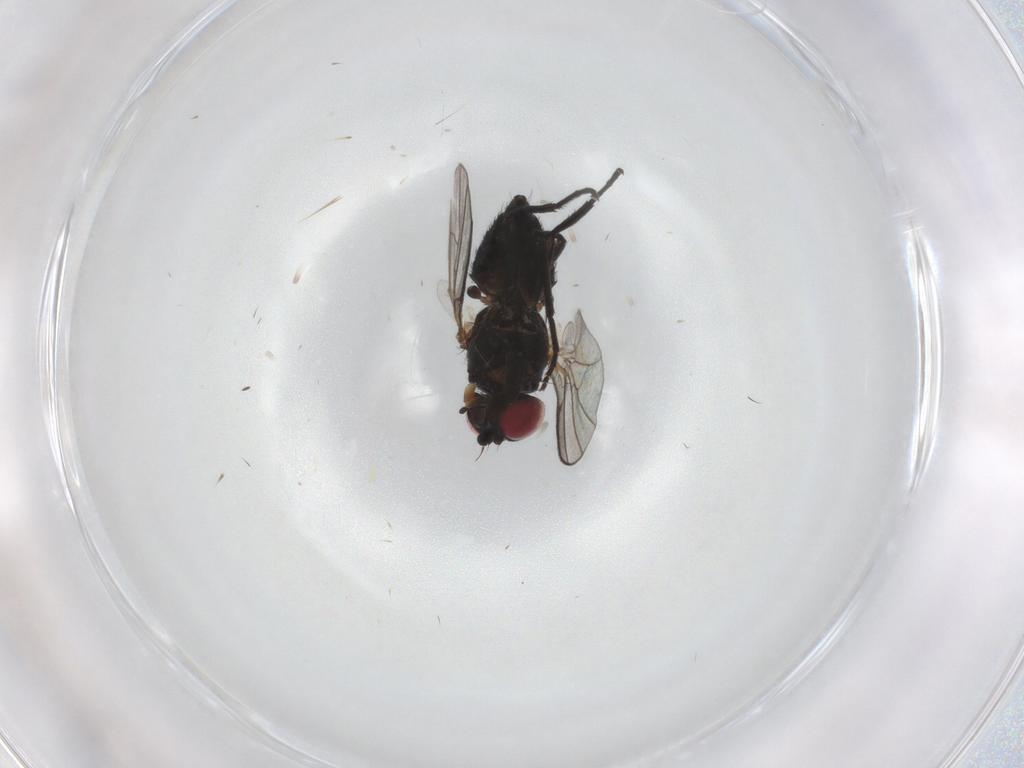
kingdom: Animalia
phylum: Arthropoda
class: Insecta
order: Diptera
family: Agromyzidae
